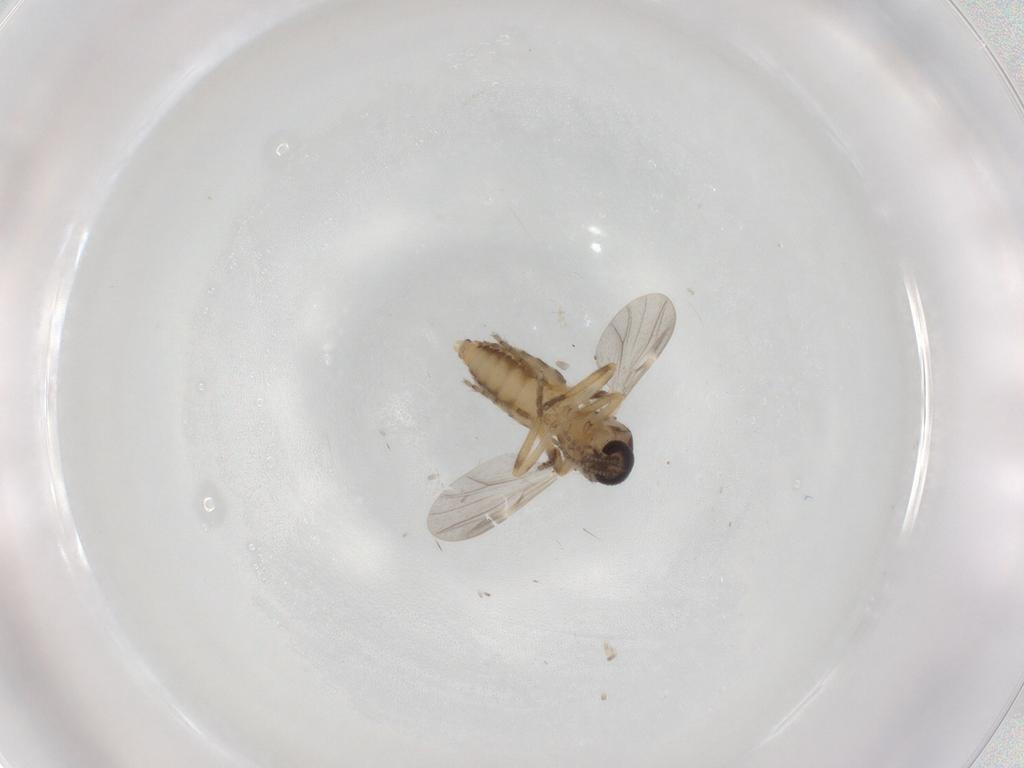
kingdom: Animalia
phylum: Arthropoda
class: Insecta
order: Diptera
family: Ceratopogonidae
